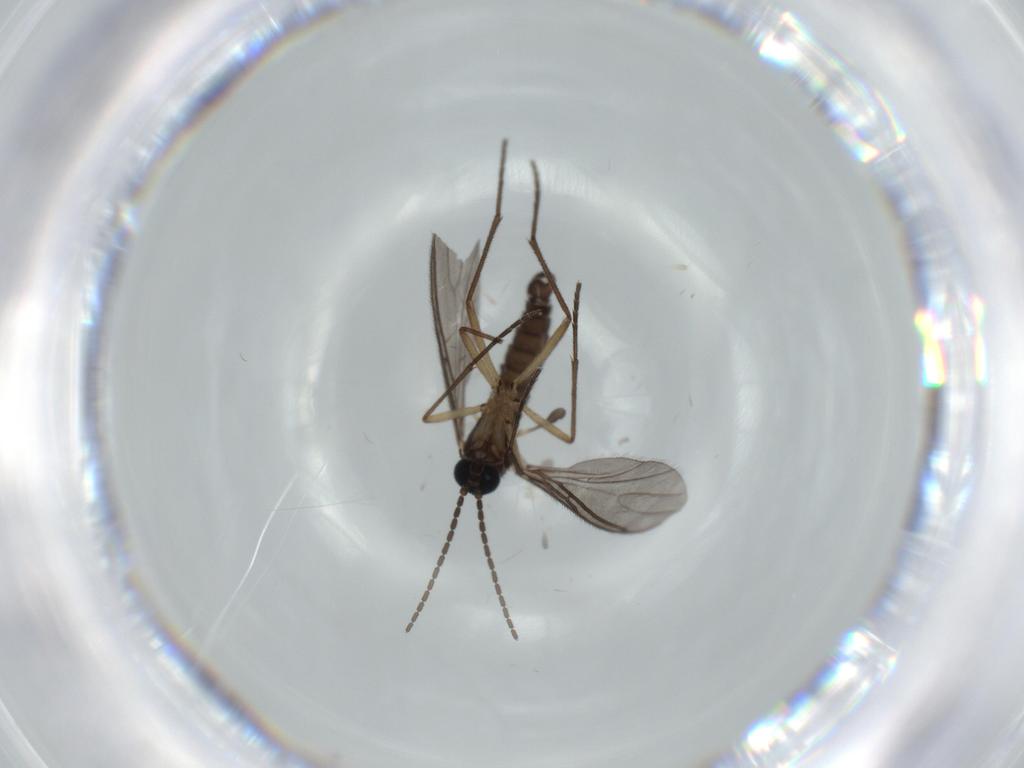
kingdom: Animalia
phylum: Arthropoda
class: Insecta
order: Diptera
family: Sciaridae
